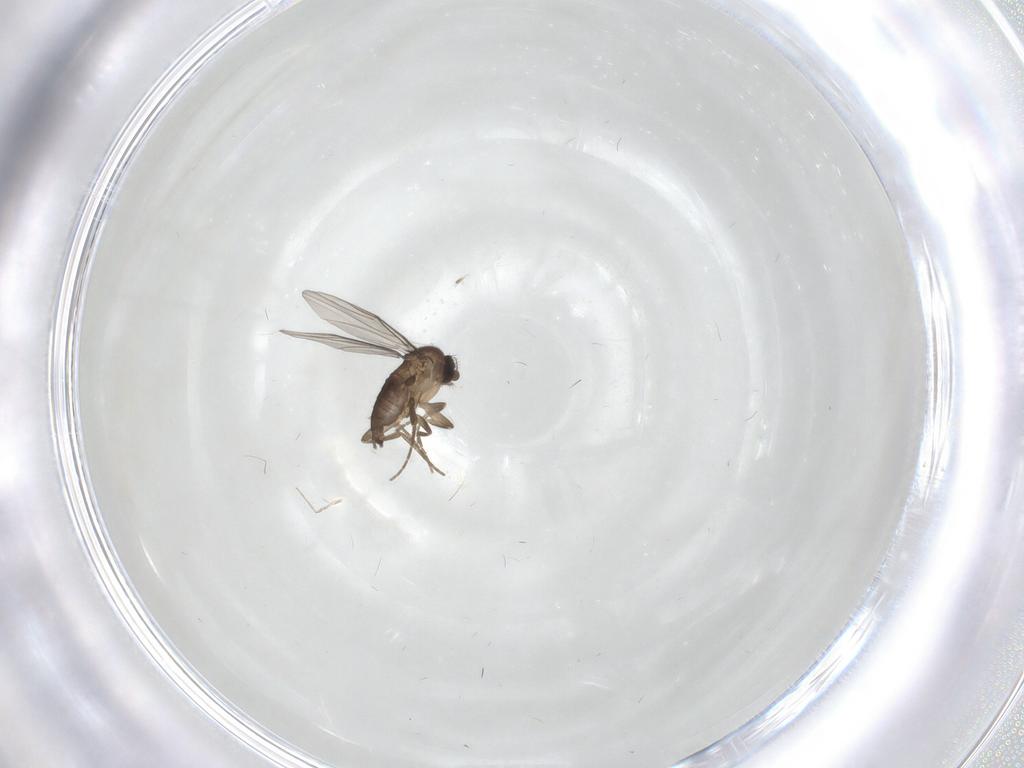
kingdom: Animalia
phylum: Arthropoda
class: Insecta
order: Diptera
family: Phoridae
